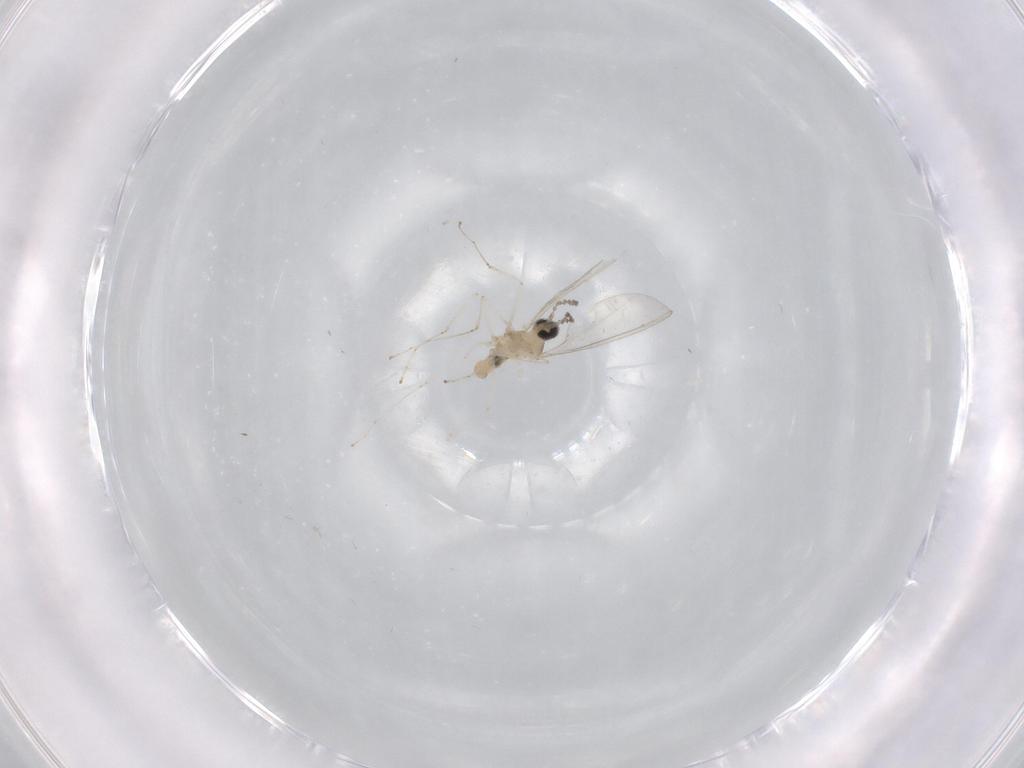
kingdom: Animalia
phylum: Arthropoda
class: Insecta
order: Diptera
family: Cecidomyiidae
